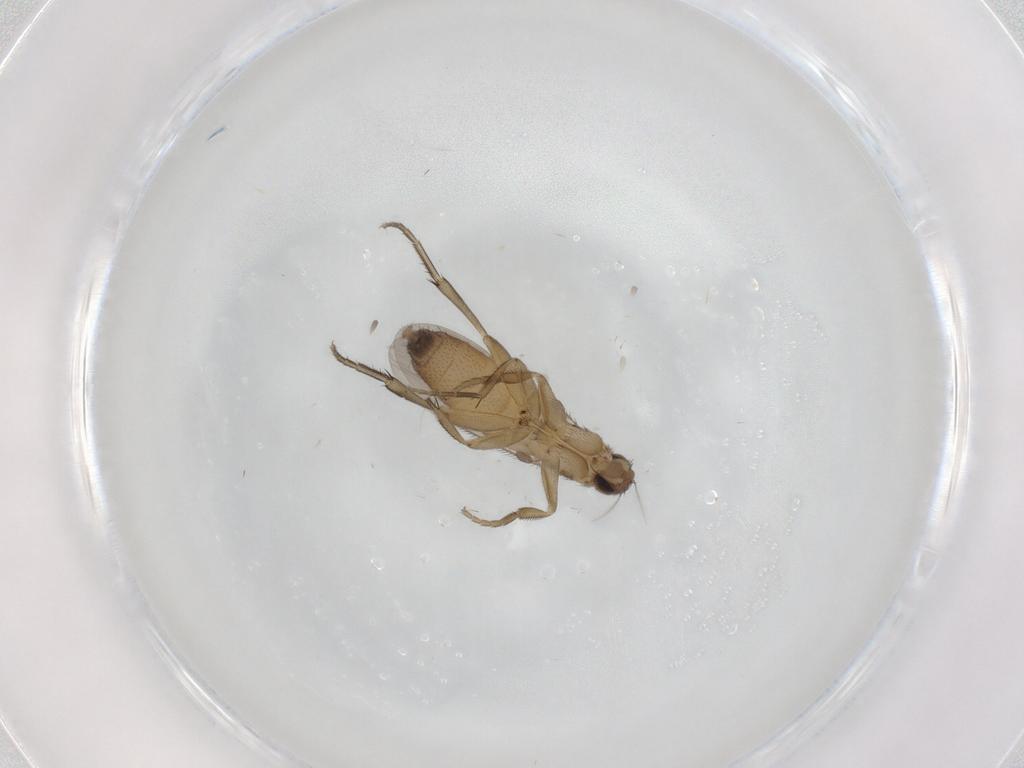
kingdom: Animalia
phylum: Arthropoda
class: Insecta
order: Diptera
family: Phoridae
